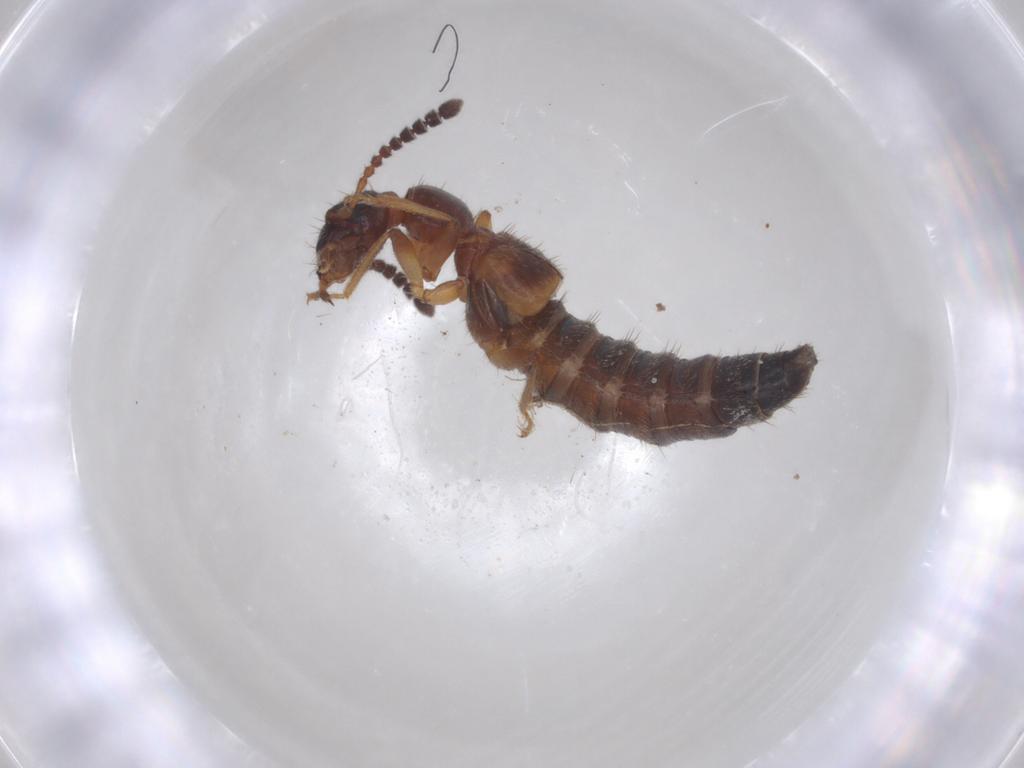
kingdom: Animalia
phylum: Arthropoda
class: Insecta
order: Coleoptera
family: Staphylinidae
